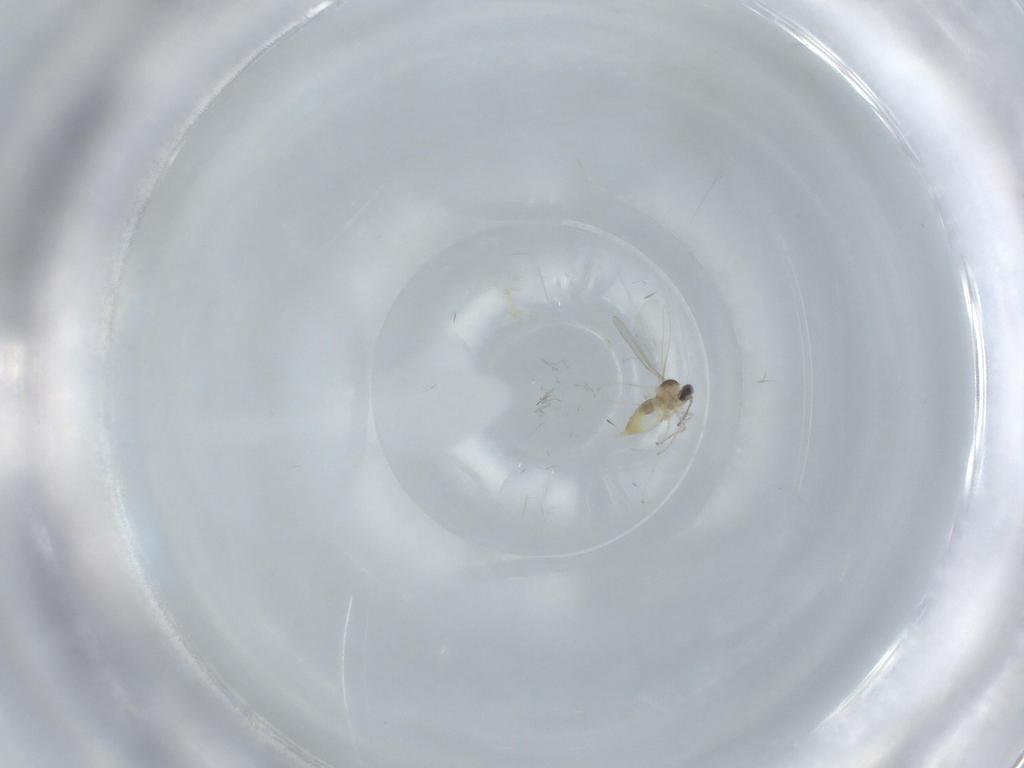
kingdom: Animalia
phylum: Arthropoda
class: Insecta
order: Diptera
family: Cecidomyiidae
